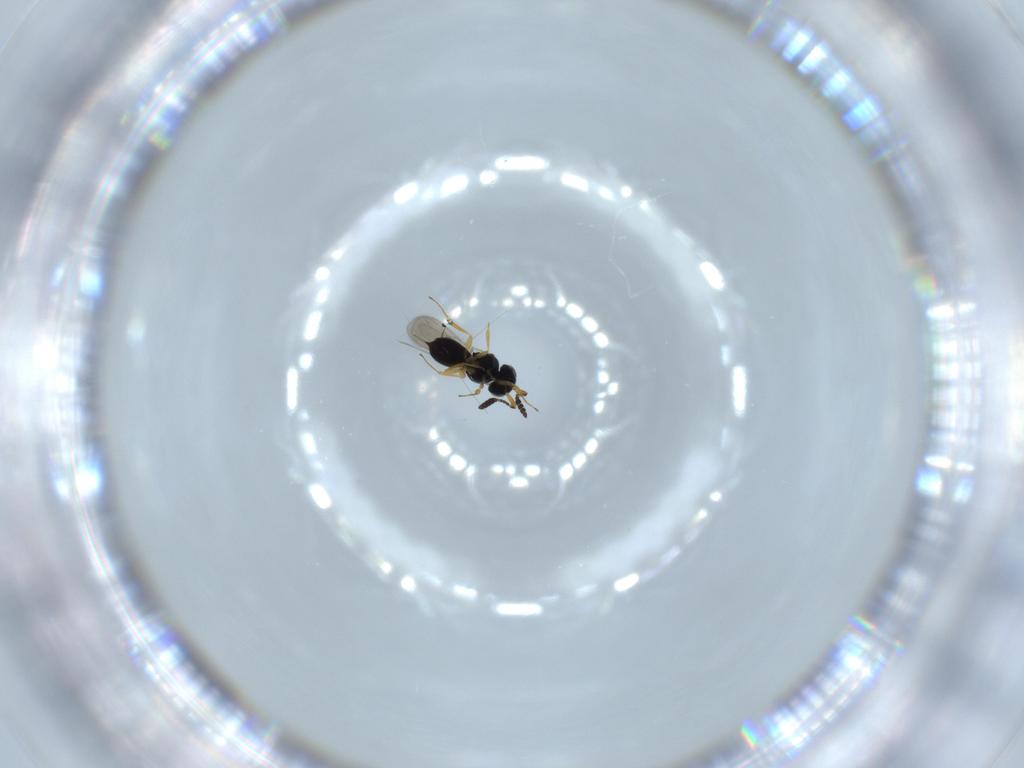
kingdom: Animalia
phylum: Arthropoda
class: Insecta
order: Hymenoptera
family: Scelionidae
